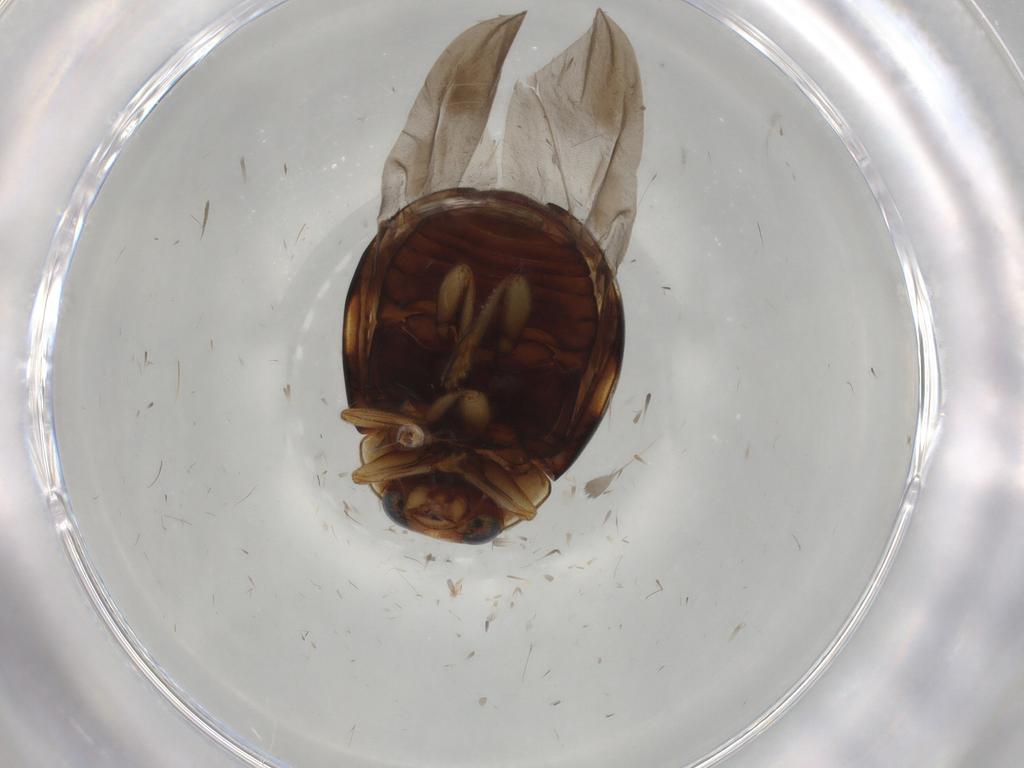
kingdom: Animalia
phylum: Arthropoda
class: Insecta
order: Coleoptera
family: Coccinellidae
